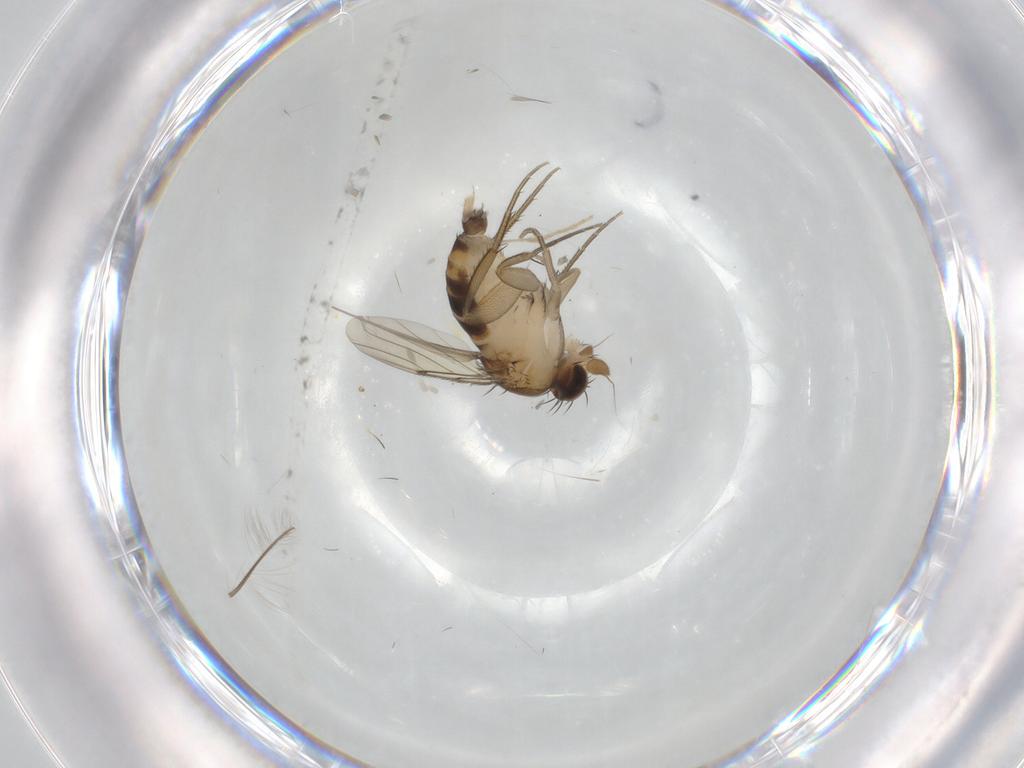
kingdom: Animalia
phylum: Arthropoda
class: Insecta
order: Diptera
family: Phoridae
